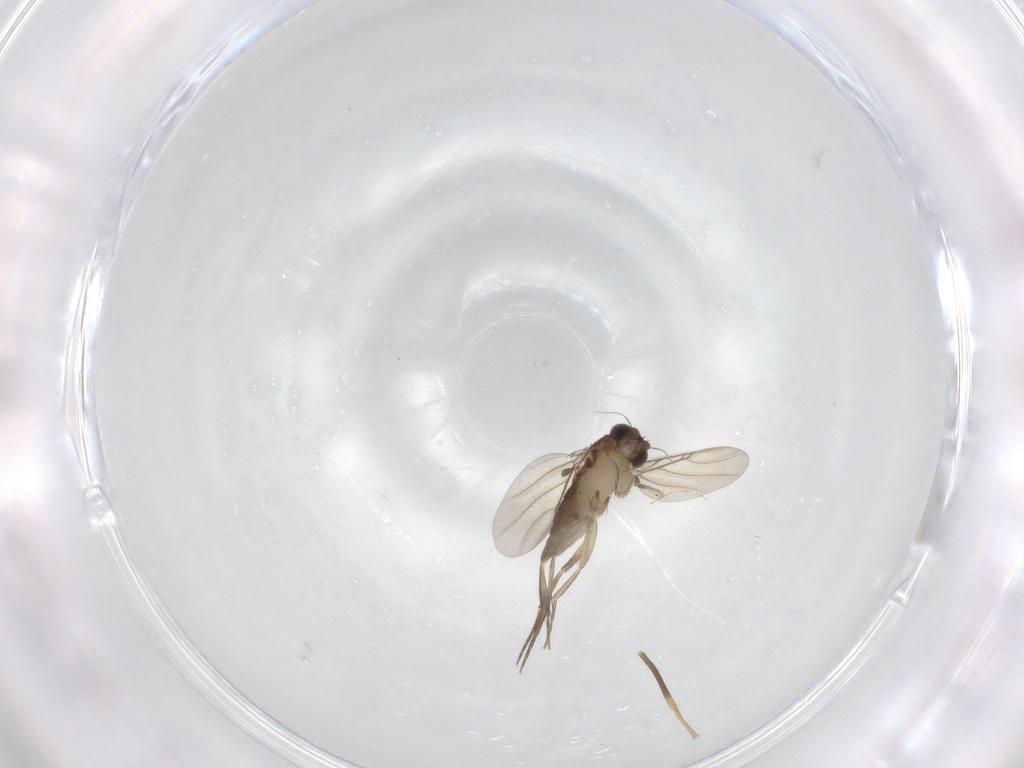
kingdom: Animalia
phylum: Arthropoda
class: Insecta
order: Diptera
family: Phoridae
